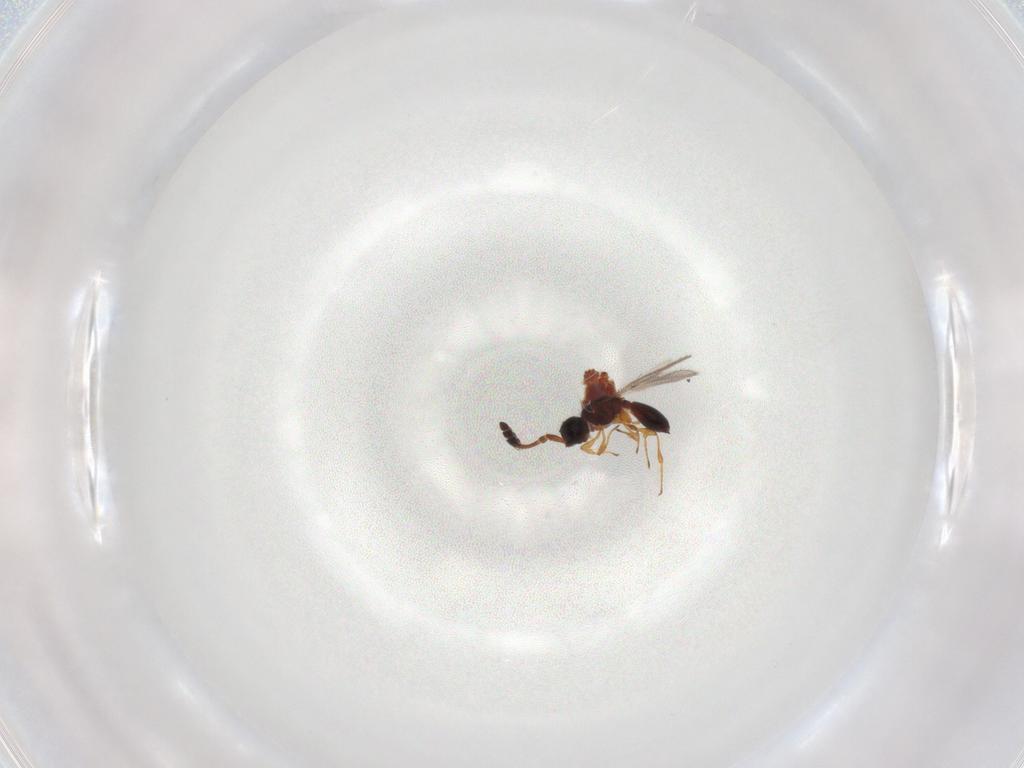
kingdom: Animalia
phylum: Arthropoda
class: Insecta
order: Hymenoptera
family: Diapriidae
